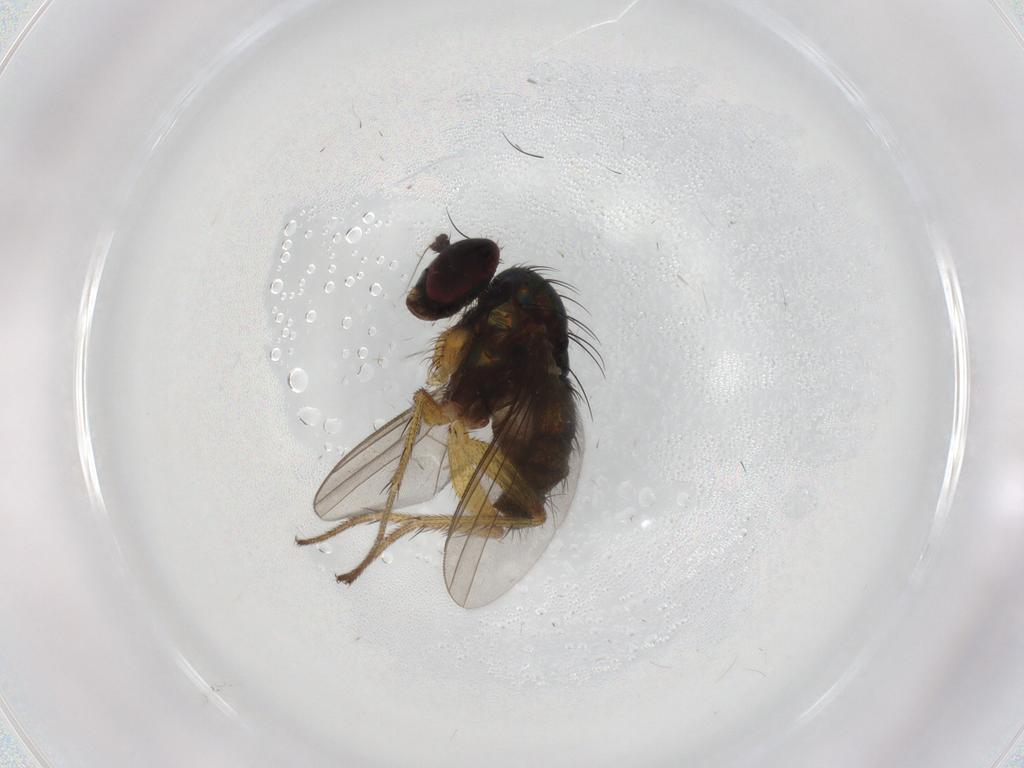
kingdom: Animalia
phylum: Arthropoda
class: Insecta
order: Diptera
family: Dolichopodidae
